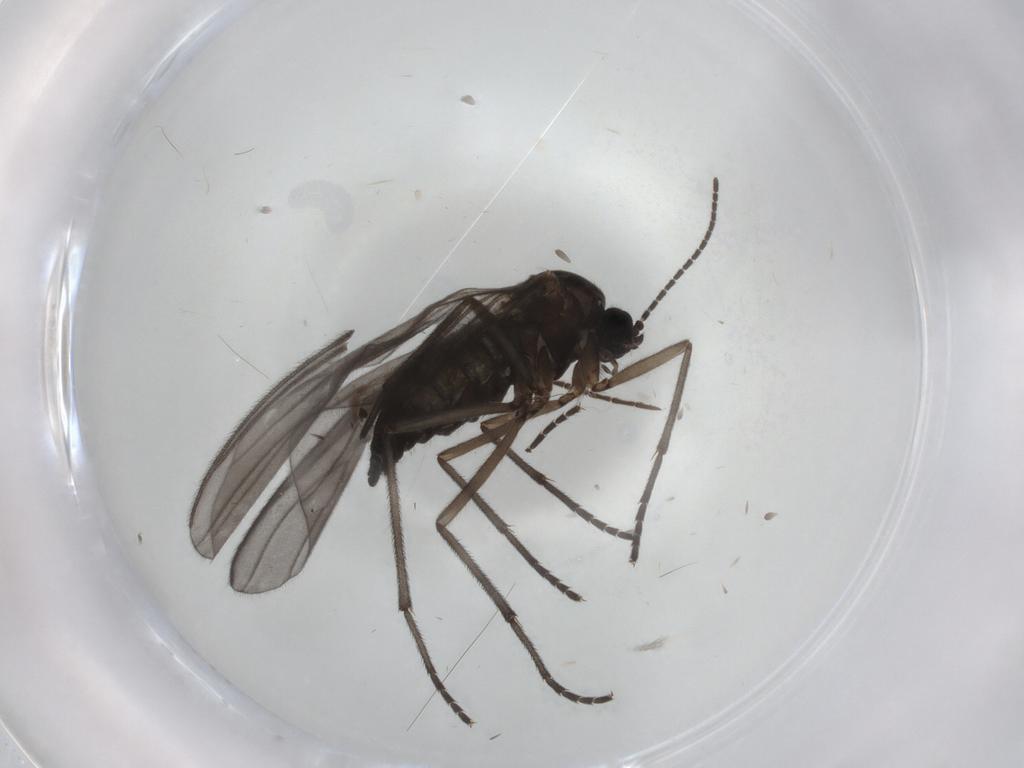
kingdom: Animalia
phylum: Arthropoda
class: Insecta
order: Diptera
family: Sciaridae
